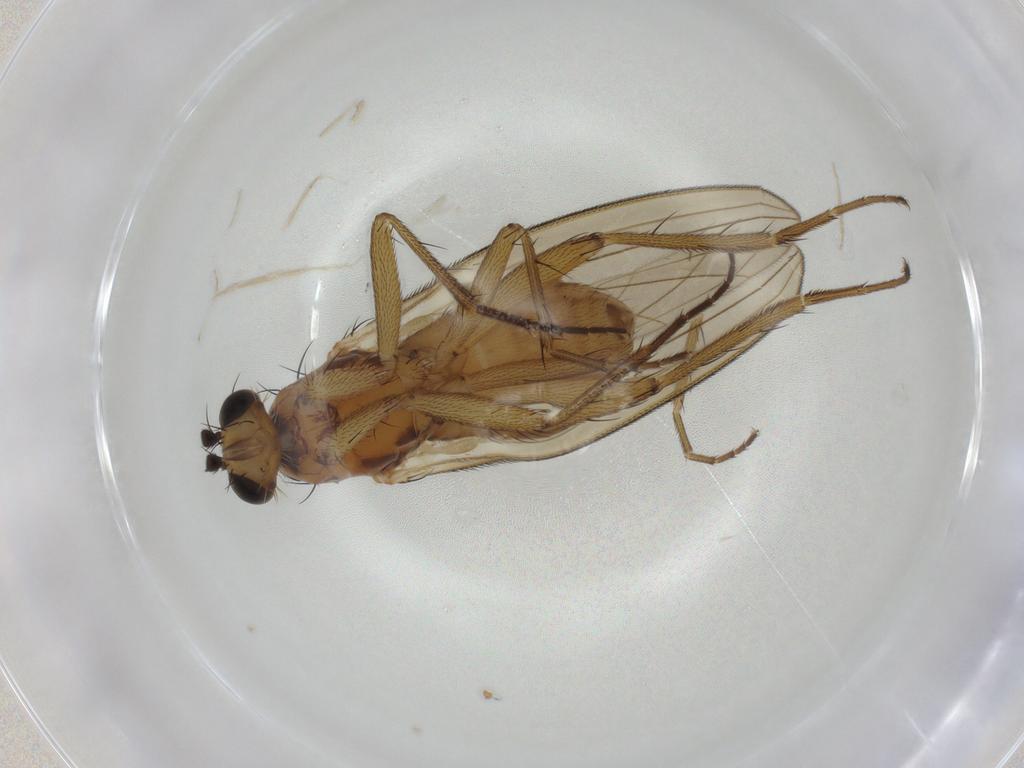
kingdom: Animalia
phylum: Arthropoda
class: Insecta
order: Diptera
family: Lonchopteridae
